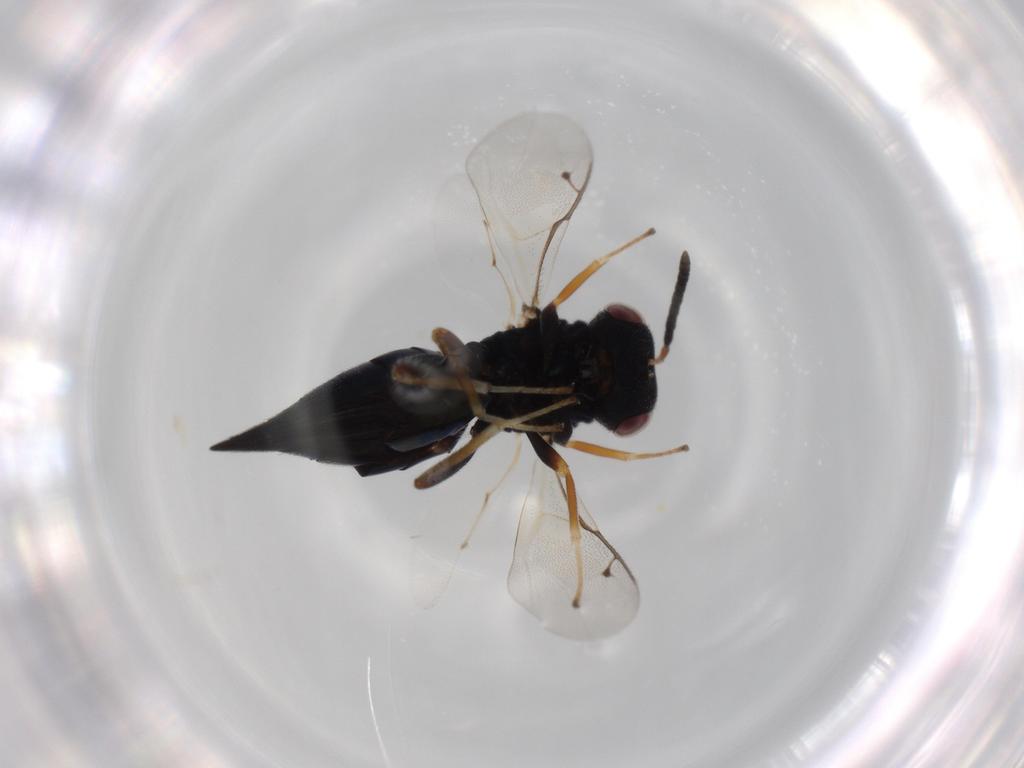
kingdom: Animalia
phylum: Arthropoda
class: Insecta
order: Hymenoptera
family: Pteromalidae
